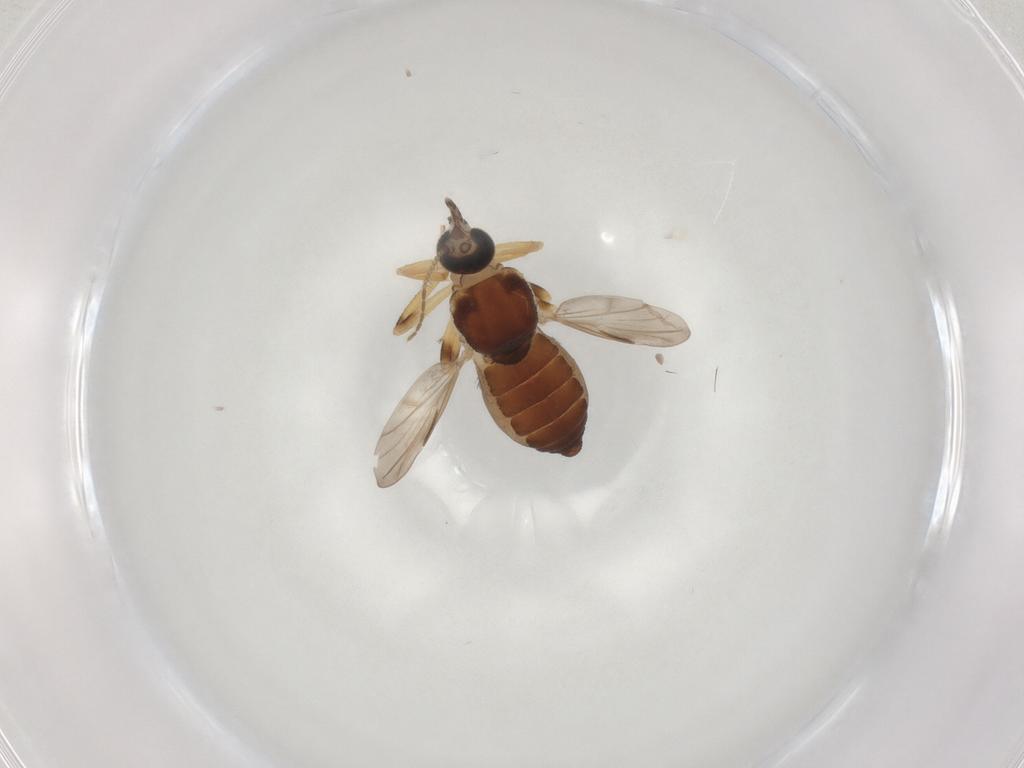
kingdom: Animalia
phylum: Arthropoda
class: Insecta
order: Diptera
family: Ceratopogonidae
